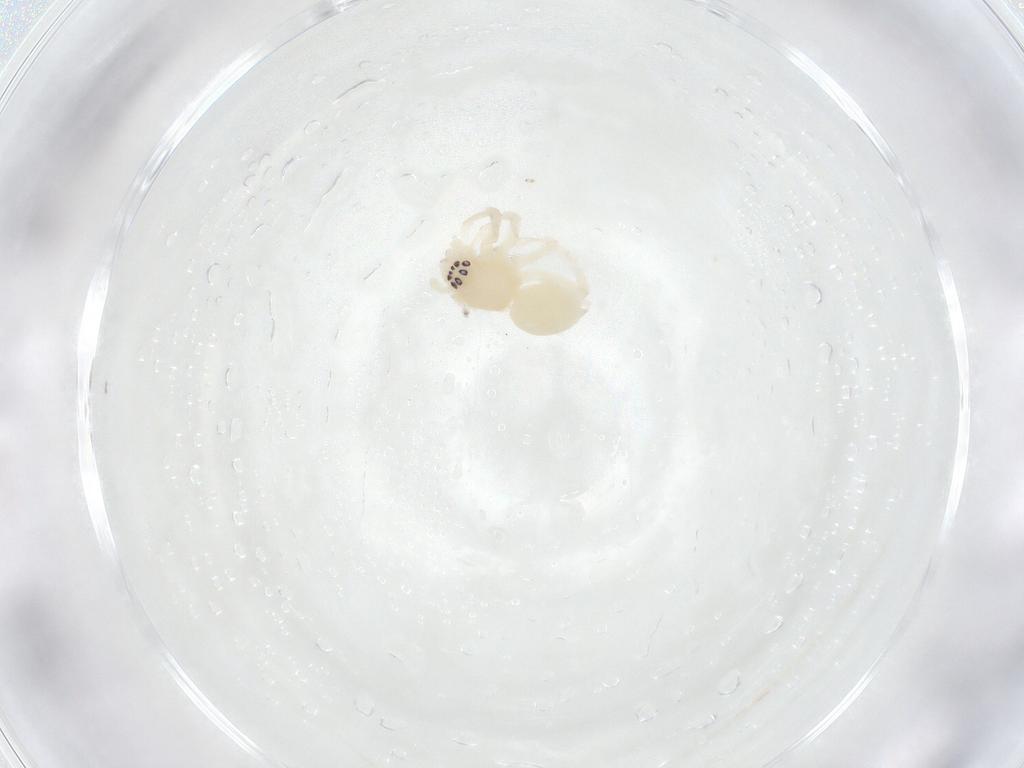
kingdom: Animalia
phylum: Arthropoda
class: Arachnida
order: Araneae
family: Anyphaenidae
